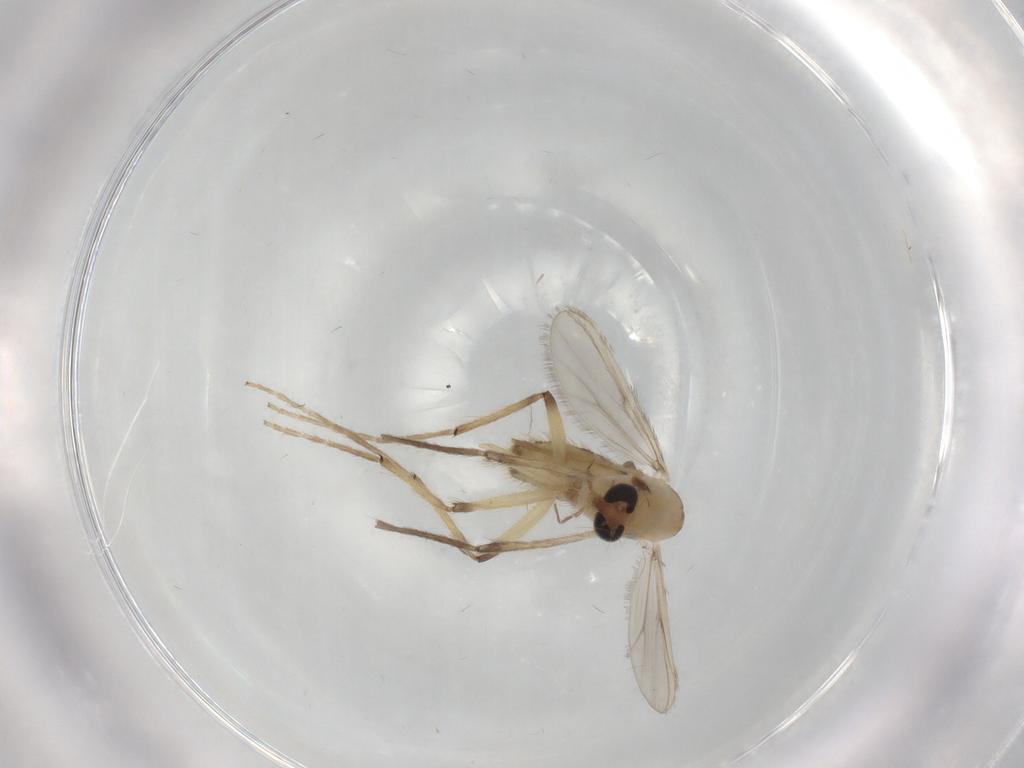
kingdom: Animalia
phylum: Arthropoda
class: Insecta
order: Diptera
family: Chironomidae
